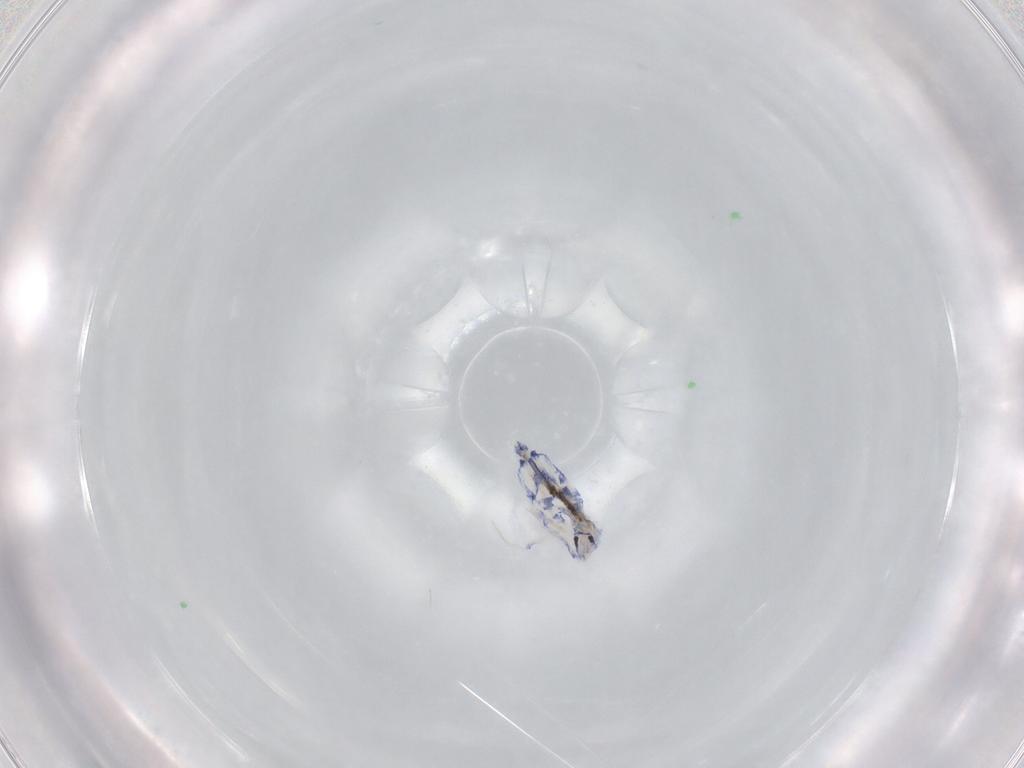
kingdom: Animalia
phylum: Arthropoda
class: Collembola
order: Entomobryomorpha
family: Entomobryidae
